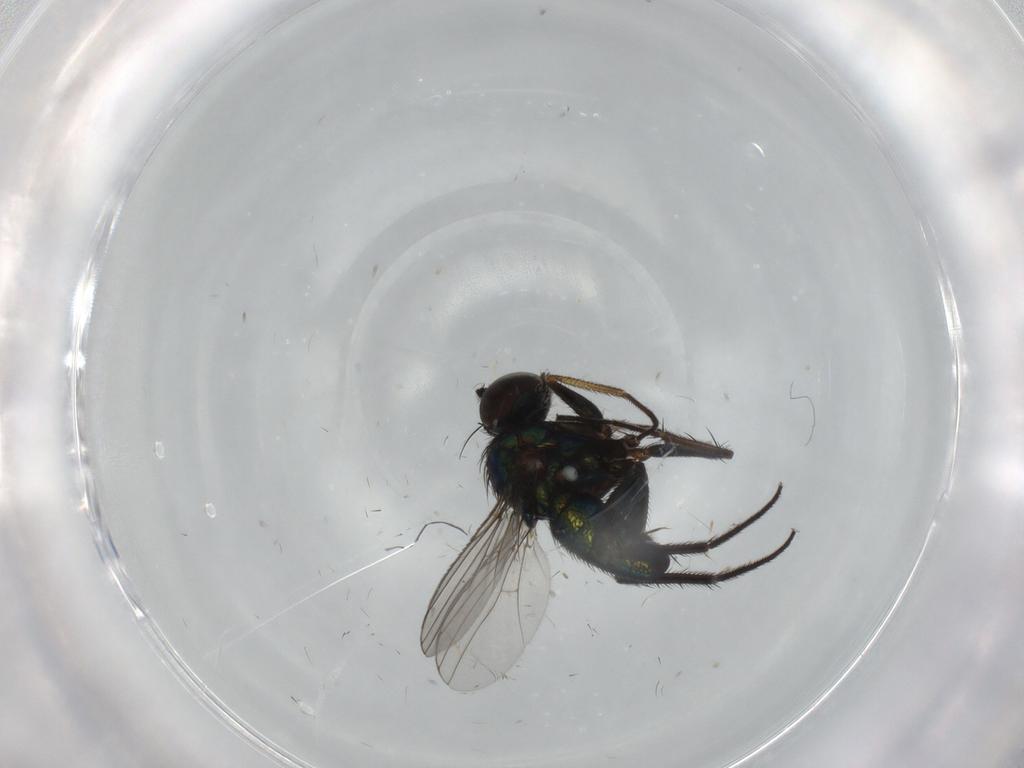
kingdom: Animalia
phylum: Arthropoda
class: Insecta
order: Diptera
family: Dolichopodidae
